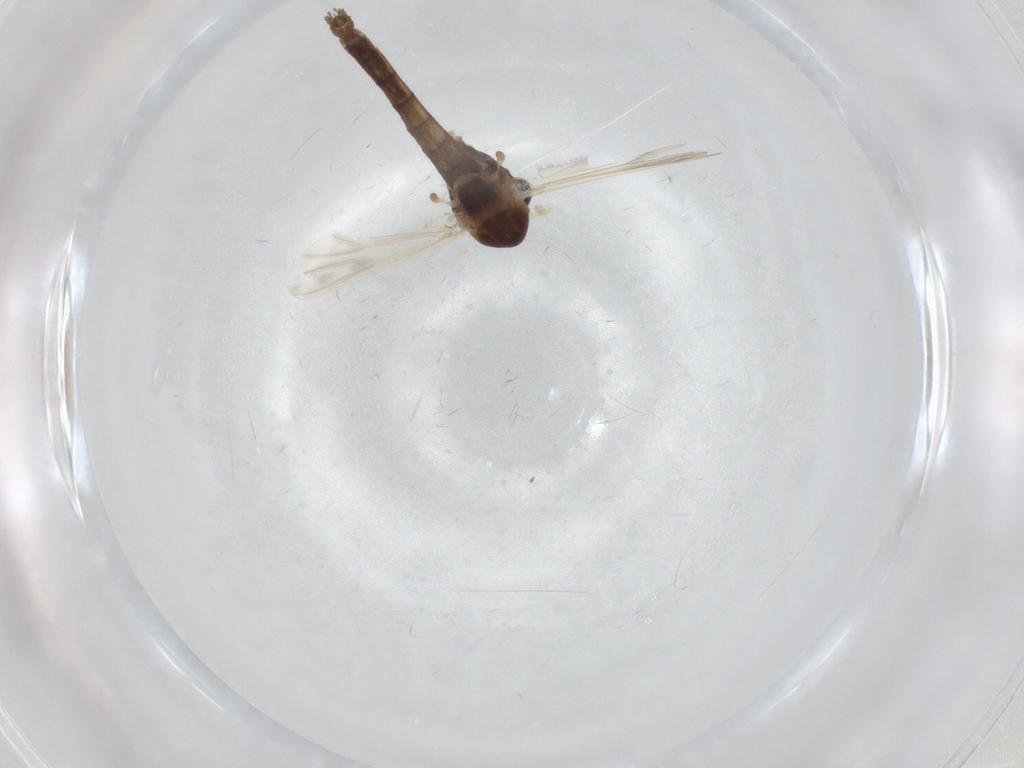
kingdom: Animalia
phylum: Arthropoda
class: Insecta
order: Diptera
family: Chironomidae
